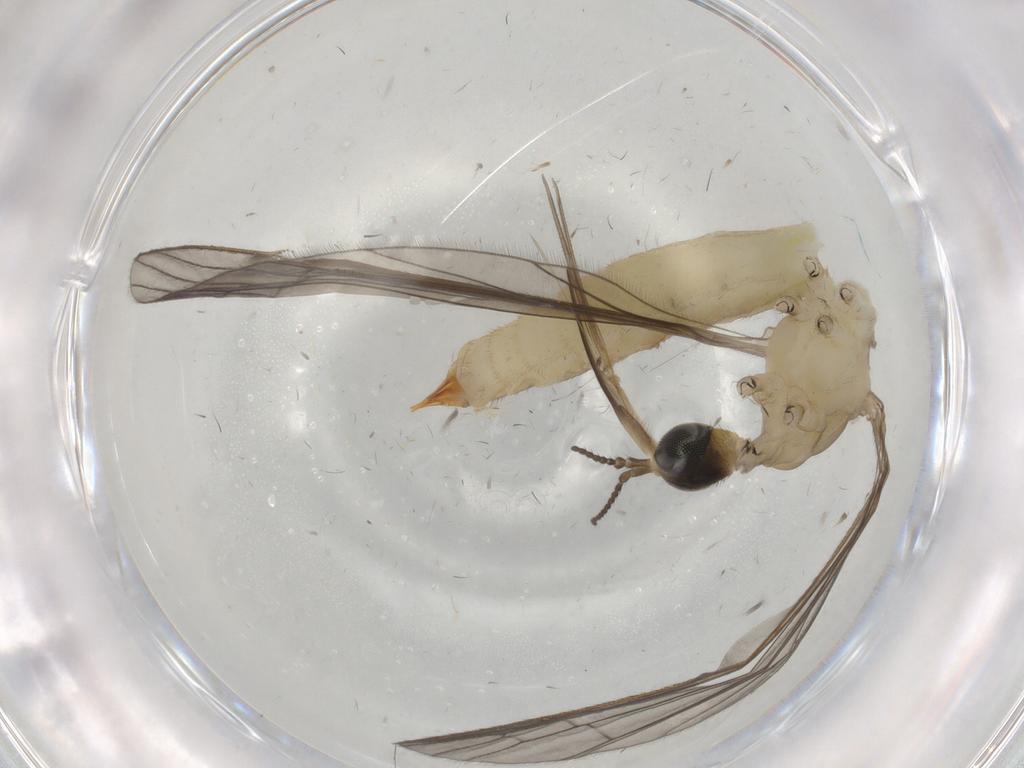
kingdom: Animalia
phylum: Arthropoda
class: Insecta
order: Diptera
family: Limoniidae
